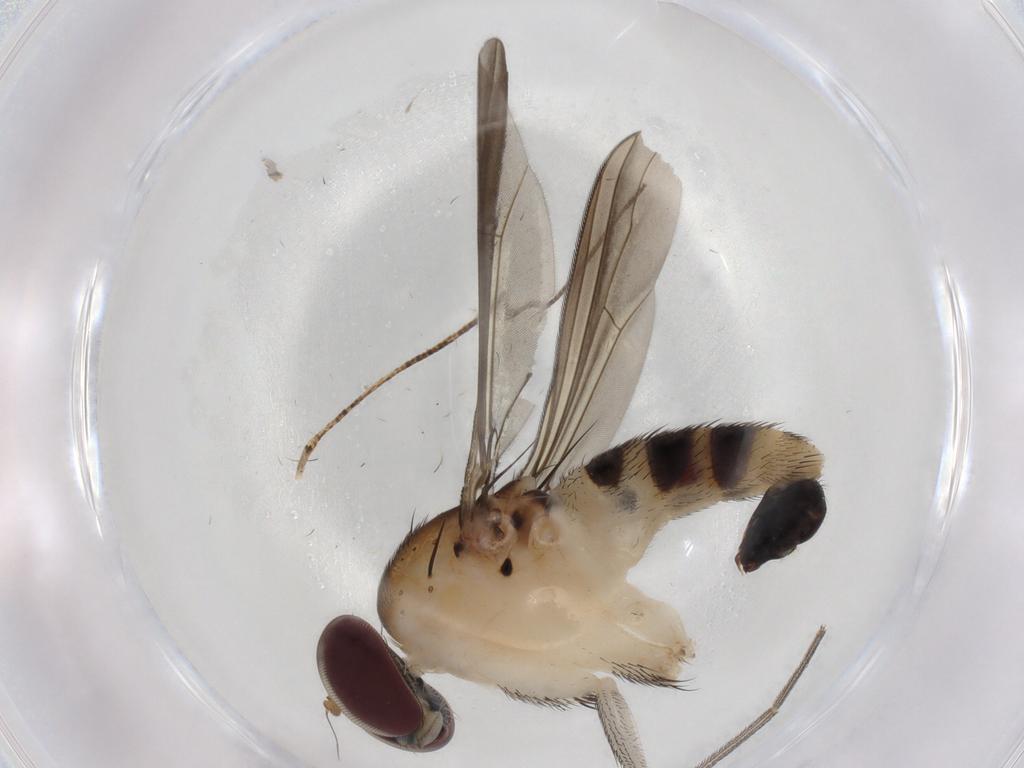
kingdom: Animalia
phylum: Arthropoda
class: Insecta
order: Diptera
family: Dolichopodidae
